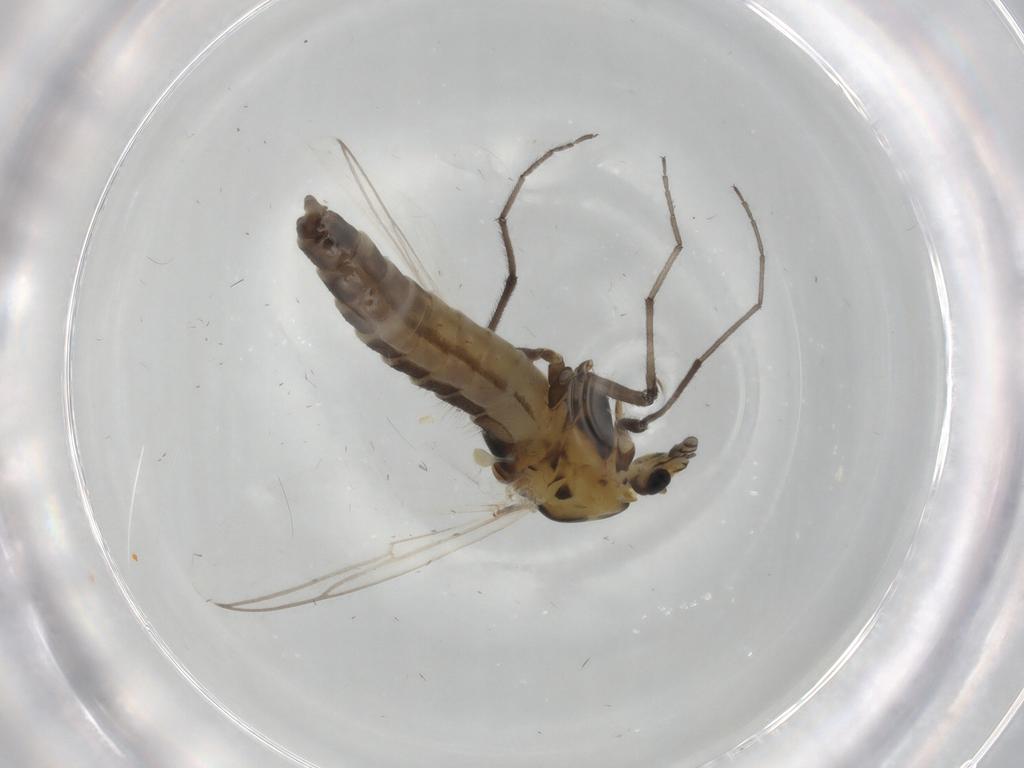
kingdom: Animalia
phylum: Arthropoda
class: Insecta
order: Diptera
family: Chironomidae
